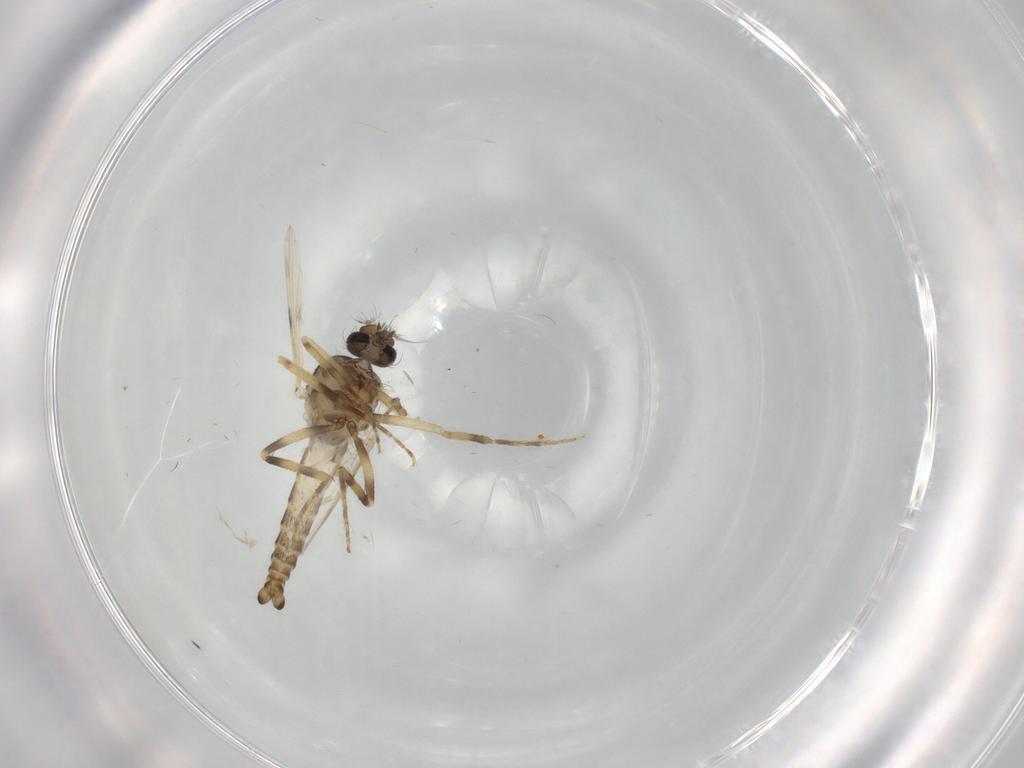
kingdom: Animalia
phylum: Arthropoda
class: Insecta
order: Diptera
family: Ceratopogonidae
